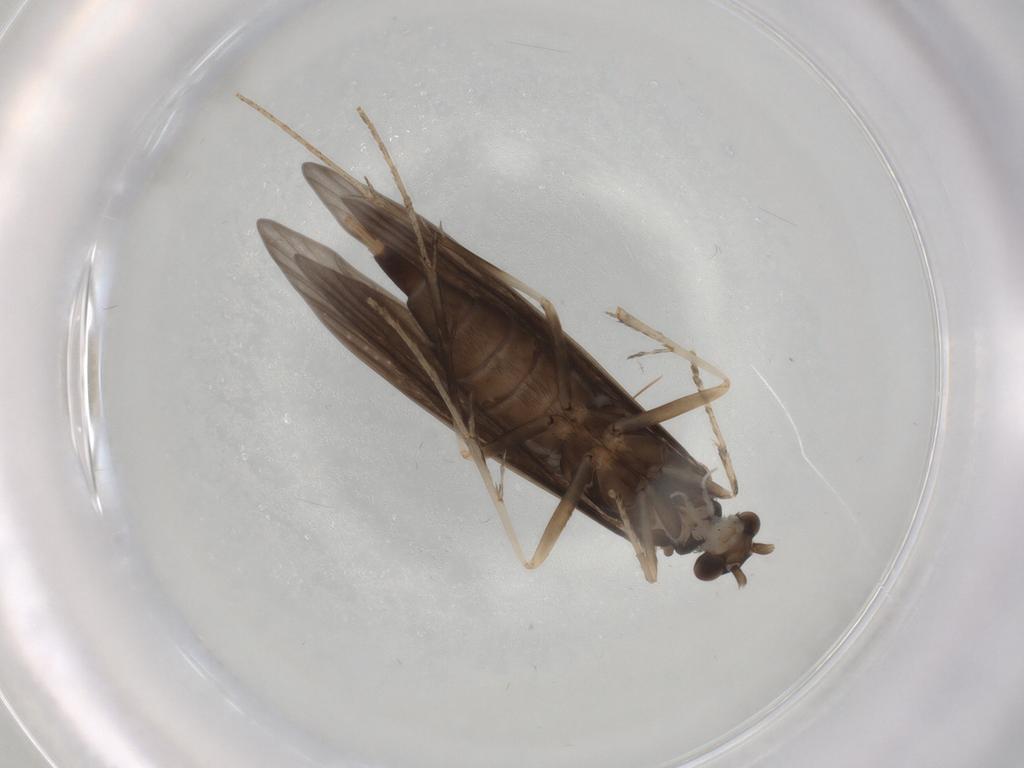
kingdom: Animalia
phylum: Arthropoda
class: Insecta
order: Trichoptera
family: Xiphocentronidae
